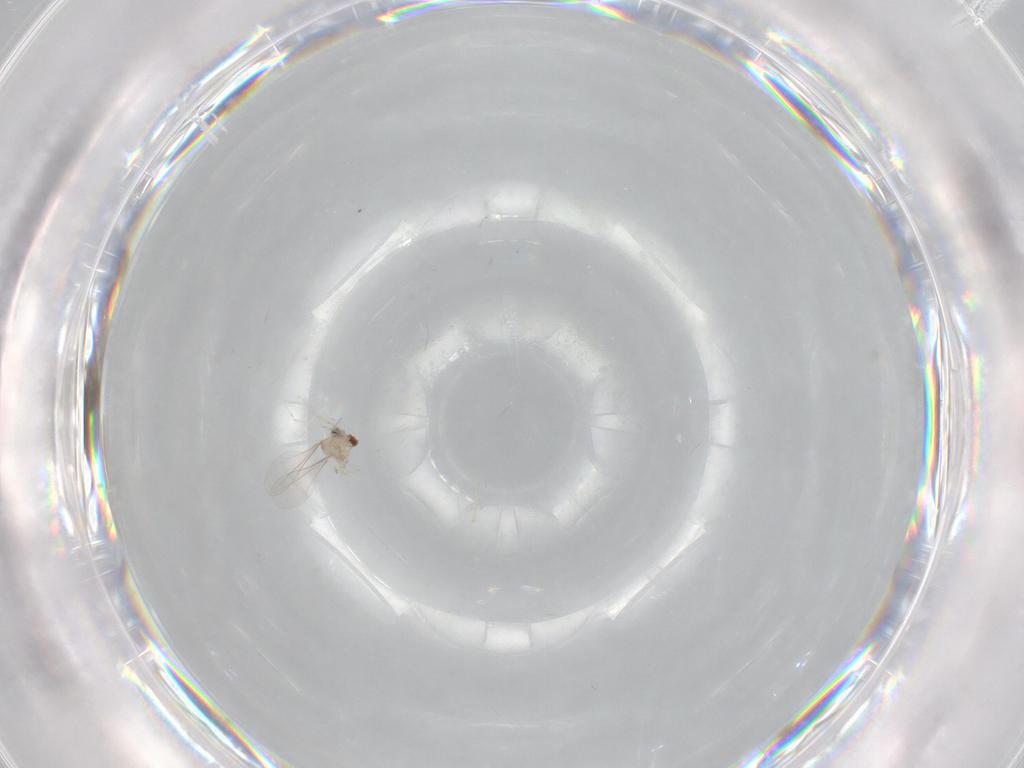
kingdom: Animalia
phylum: Arthropoda
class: Insecta
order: Diptera
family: Cecidomyiidae
